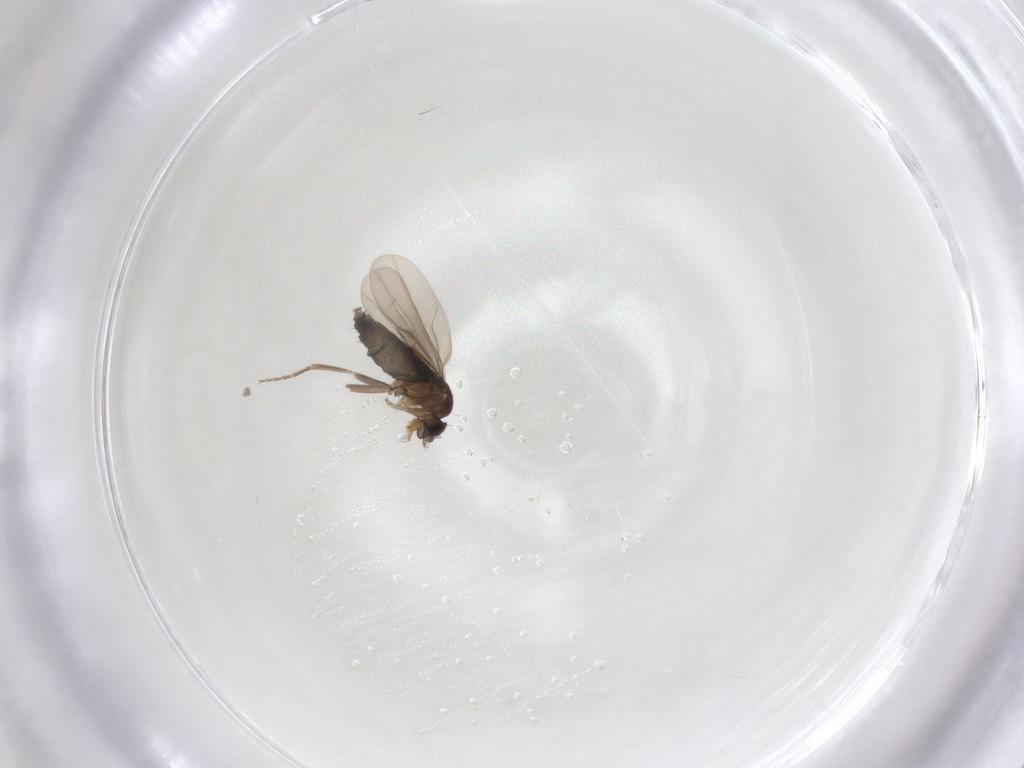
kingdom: Animalia
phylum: Arthropoda
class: Insecta
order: Diptera
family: Phoridae
